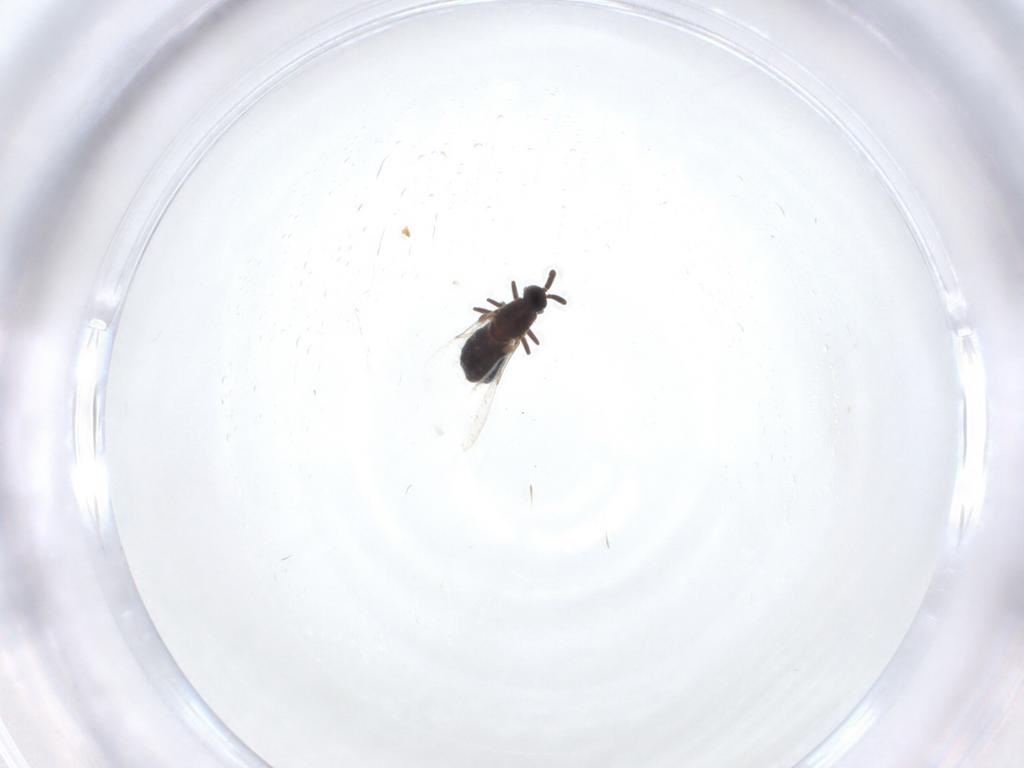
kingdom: Animalia
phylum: Arthropoda
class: Insecta
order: Diptera
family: Scatopsidae
